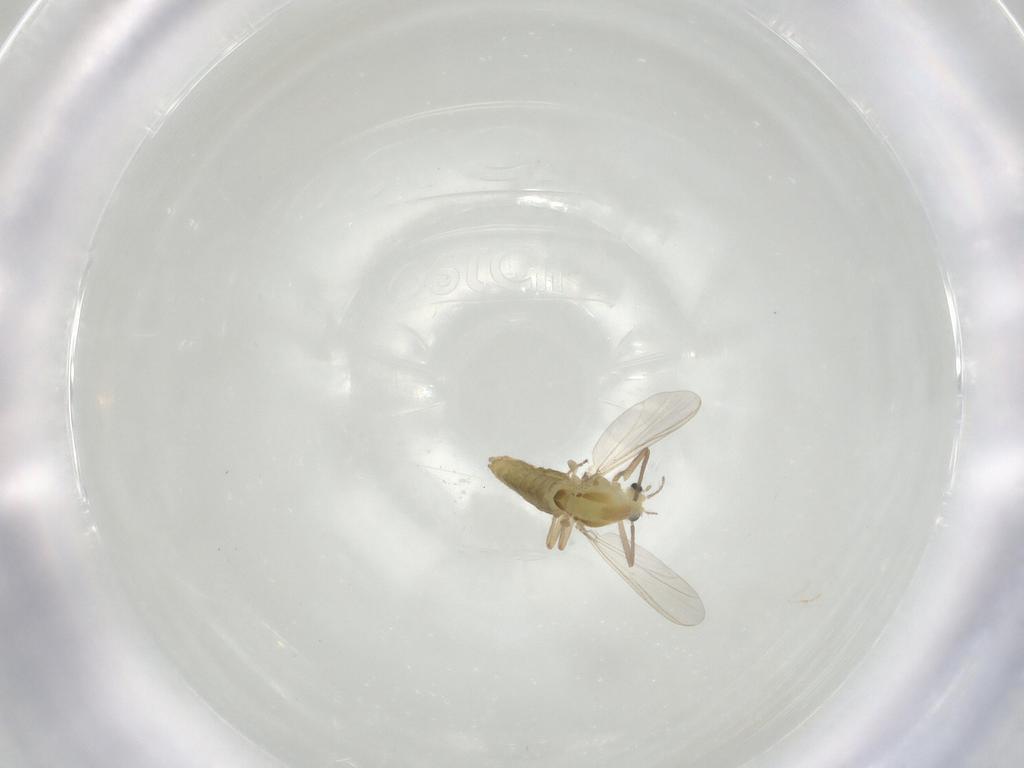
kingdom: Animalia
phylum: Arthropoda
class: Insecta
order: Diptera
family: Chironomidae
